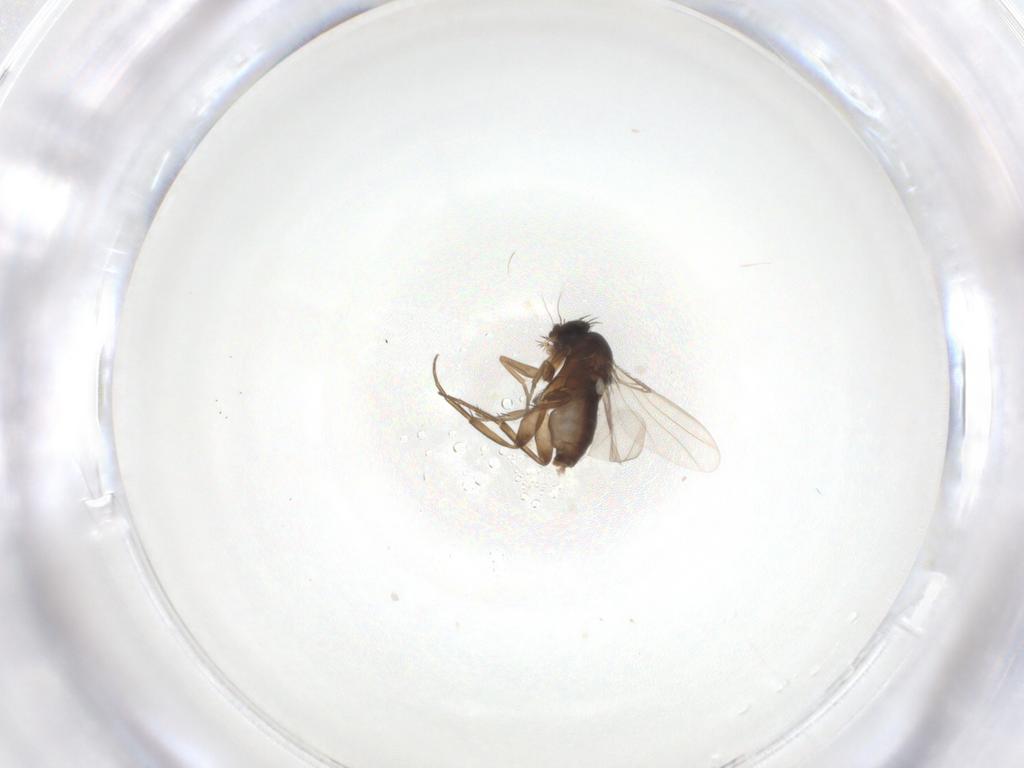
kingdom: Animalia
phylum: Arthropoda
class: Insecta
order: Diptera
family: Phoridae
